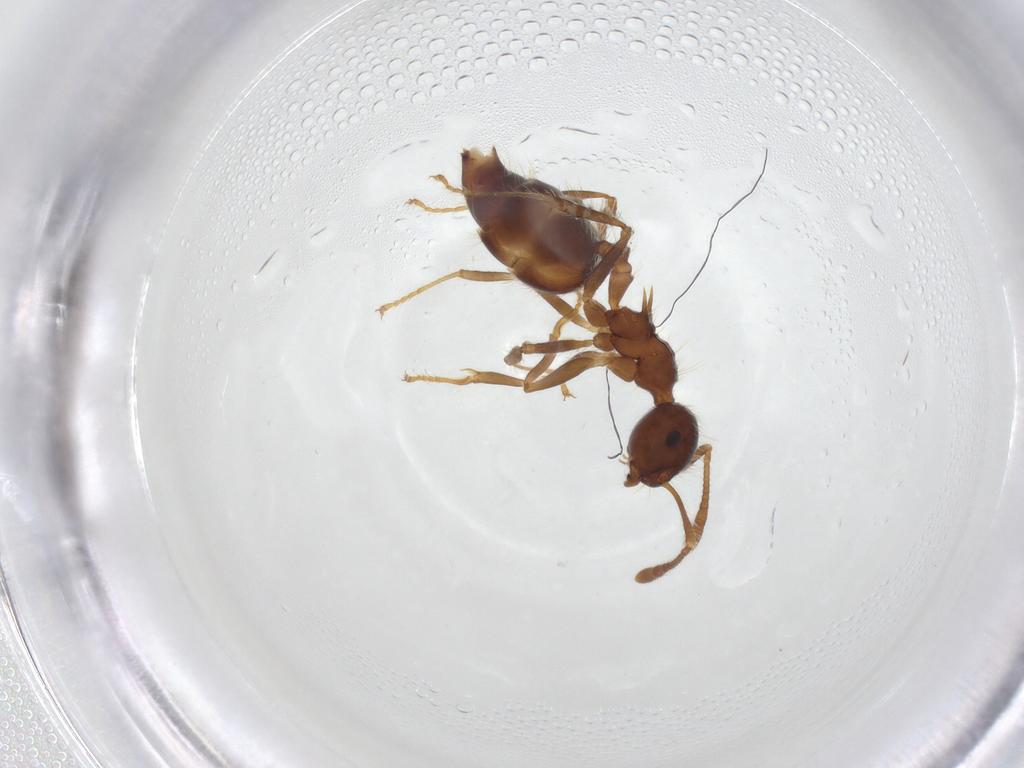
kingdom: Animalia
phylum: Arthropoda
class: Insecta
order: Hymenoptera
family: Formicidae
